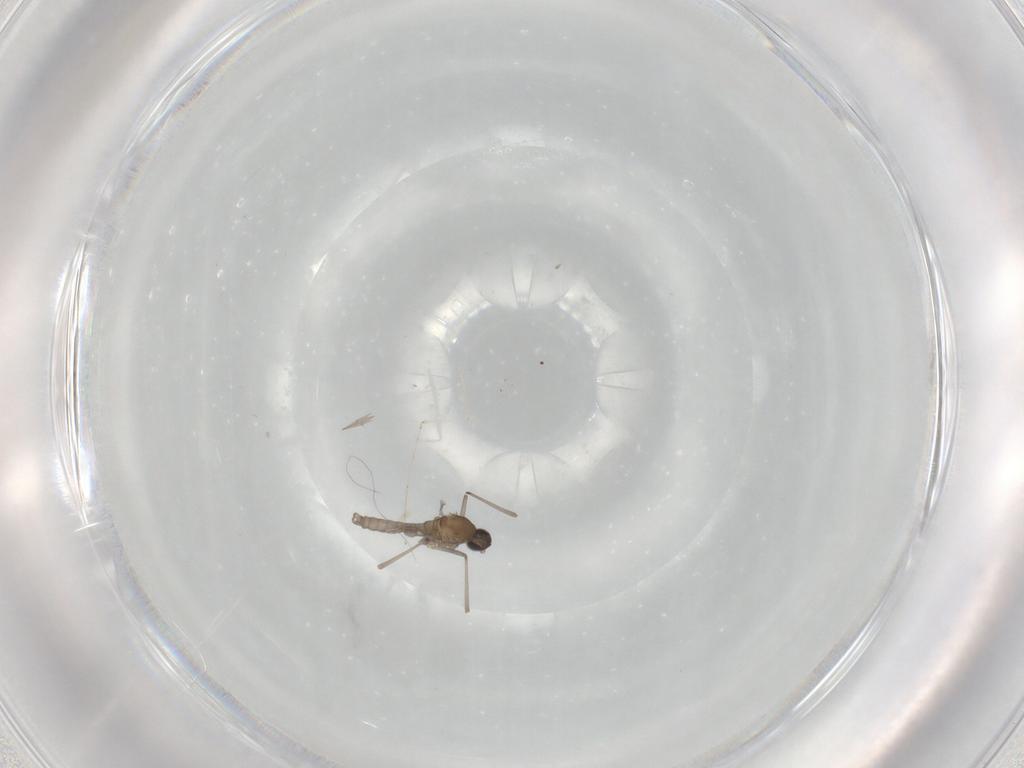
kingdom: Animalia
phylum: Arthropoda
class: Insecta
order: Diptera
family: Cecidomyiidae
